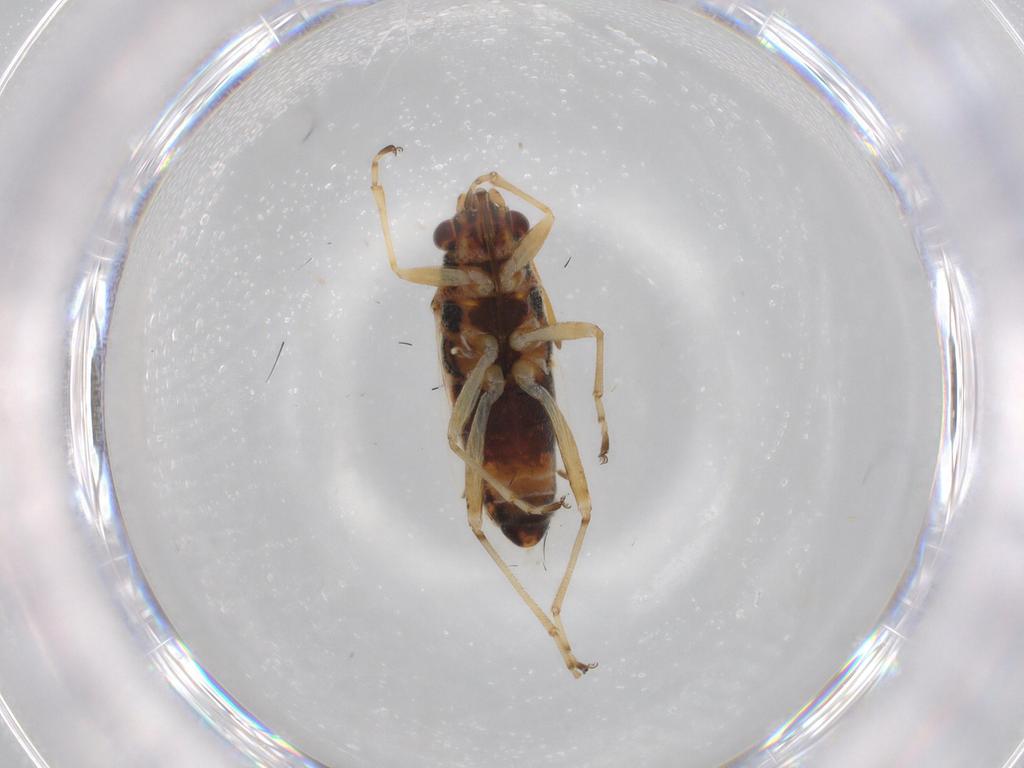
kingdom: Animalia
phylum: Arthropoda
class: Insecta
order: Hemiptera
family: Lygaeidae
